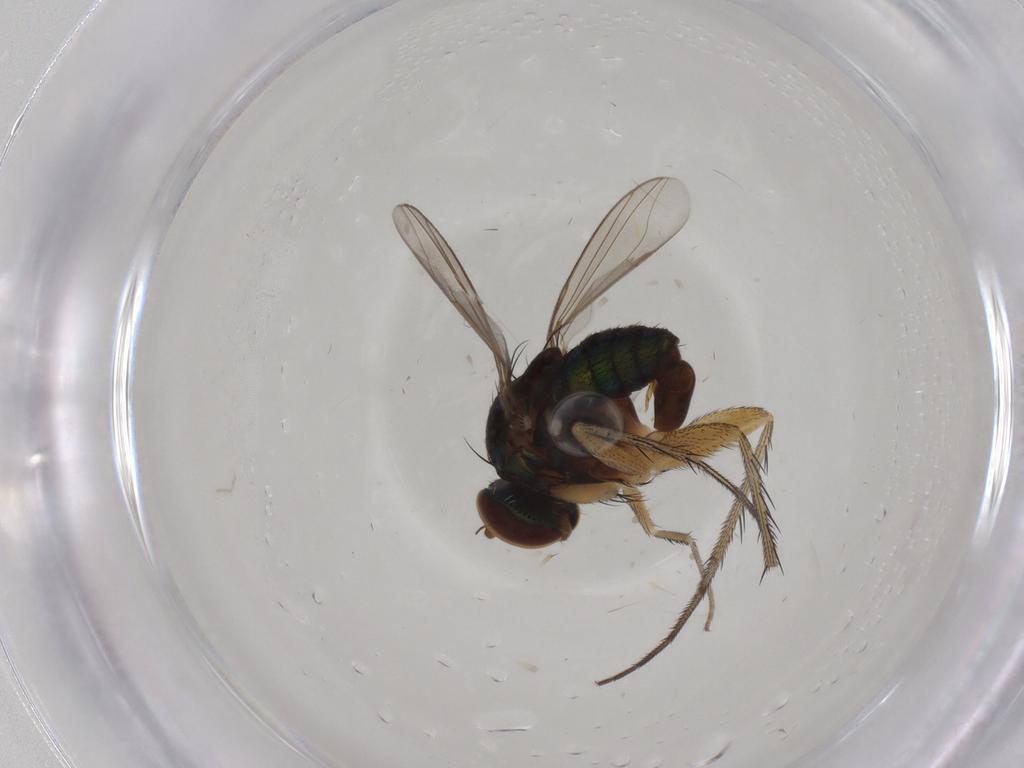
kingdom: Animalia
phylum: Arthropoda
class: Insecta
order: Diptera
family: Dolichopodidae
